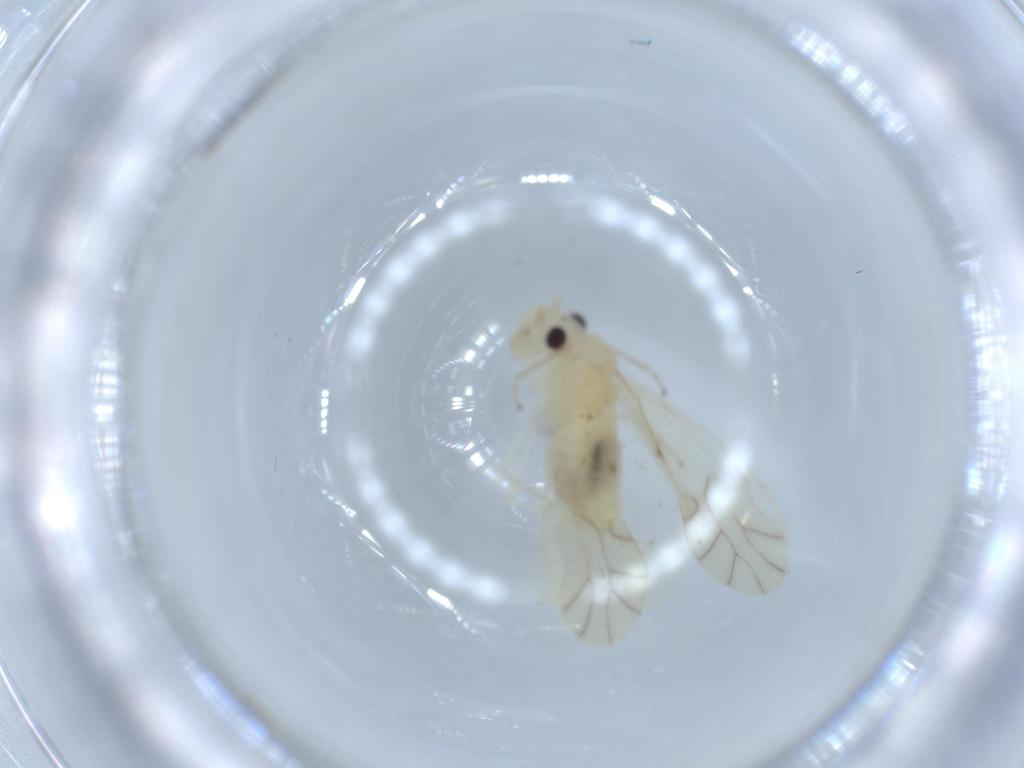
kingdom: Animalia
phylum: Arthropoda
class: Insecta
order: Psocodea
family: Caeciliusidae
